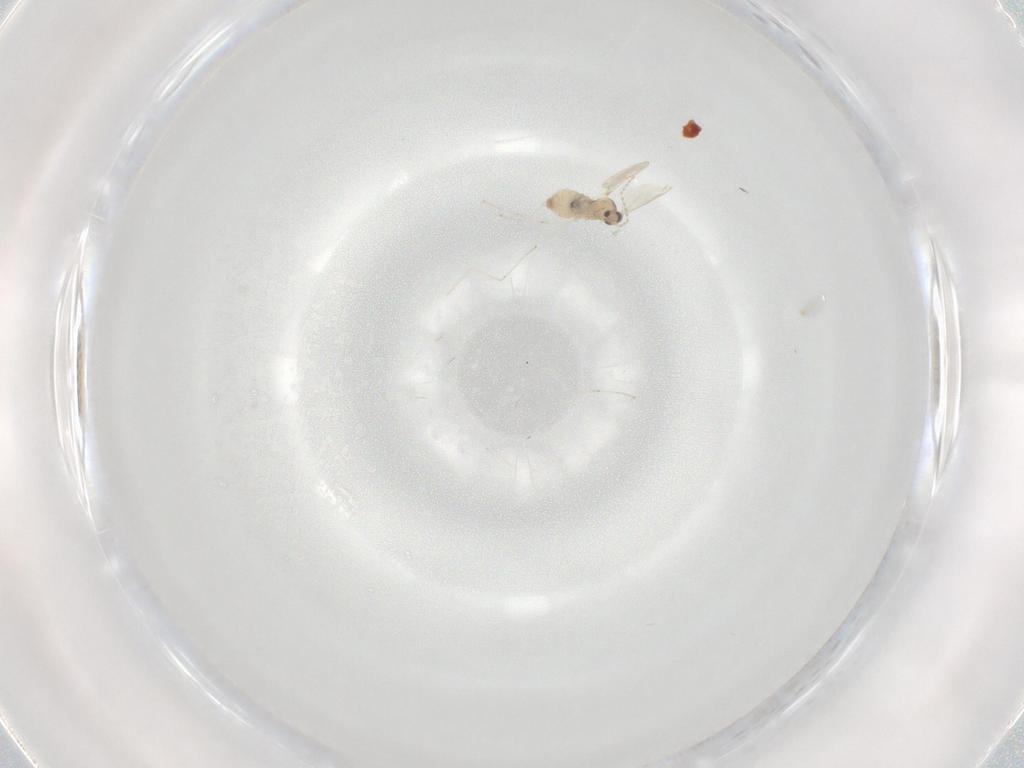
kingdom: Animalia
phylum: Arthropoda
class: Insecta
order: Diptera
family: Cecidomyiidae
